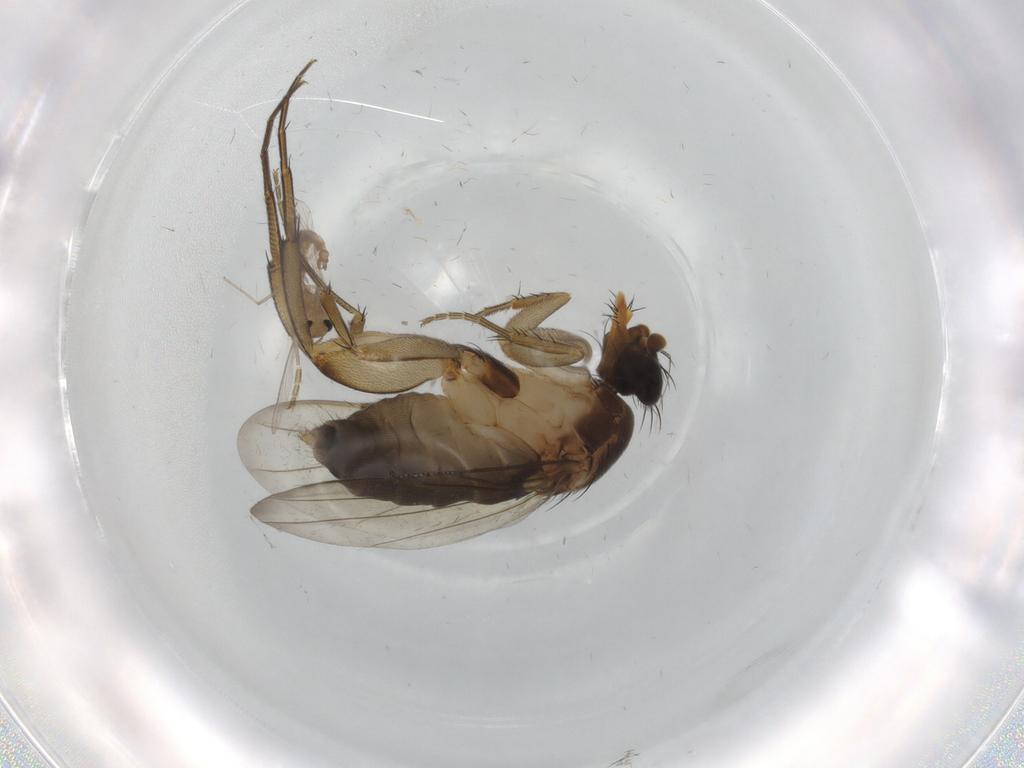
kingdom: Animalia
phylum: Arthropoda
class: Insecta
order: Diptera
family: Chironomidae
